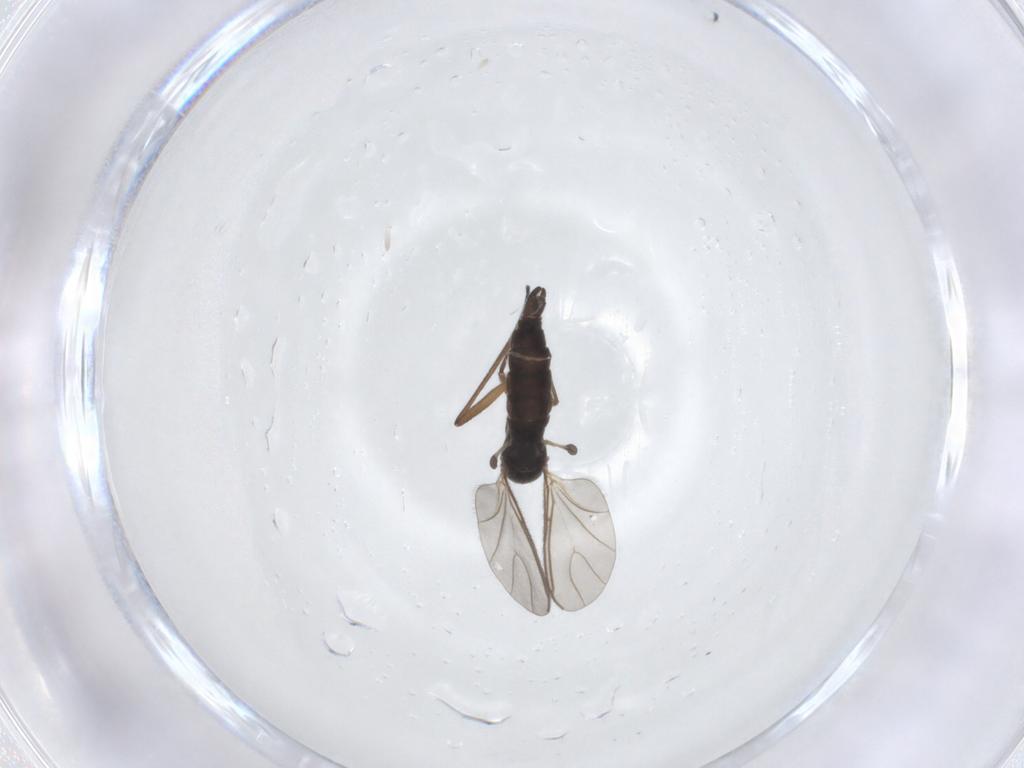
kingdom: Animalia
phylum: Arthropoda
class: Insecta
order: Diptera
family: Sciaridae
